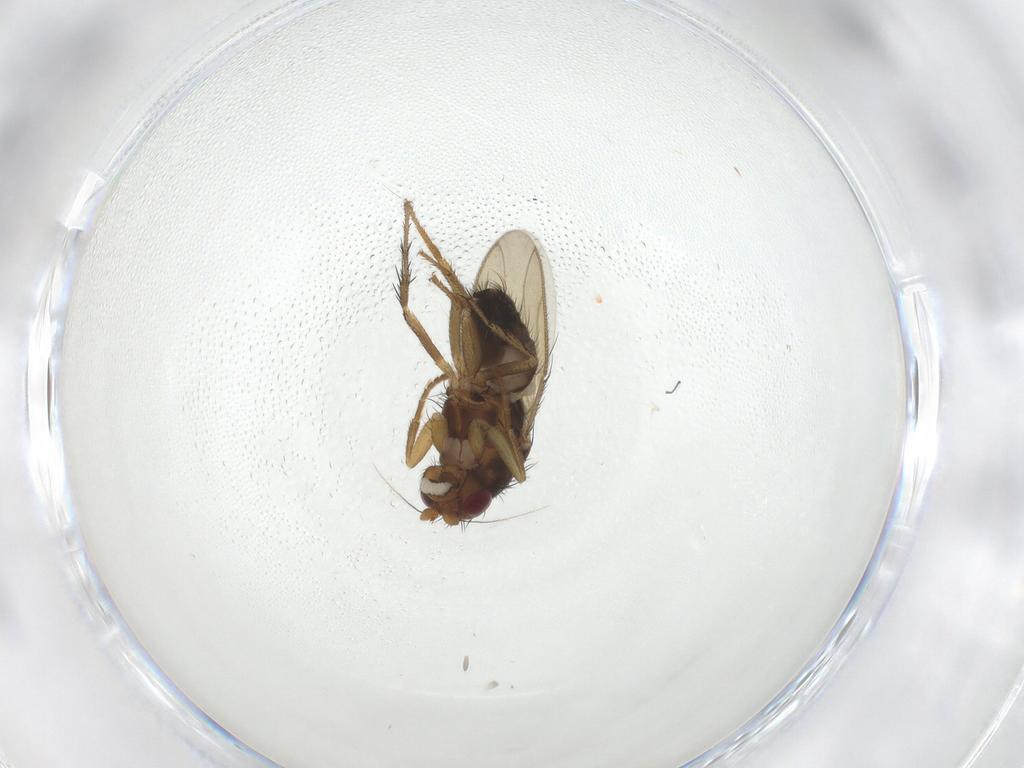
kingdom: Animalia
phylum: Arthropoda
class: Insecta
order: Diptera
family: Sphaeroceridae
